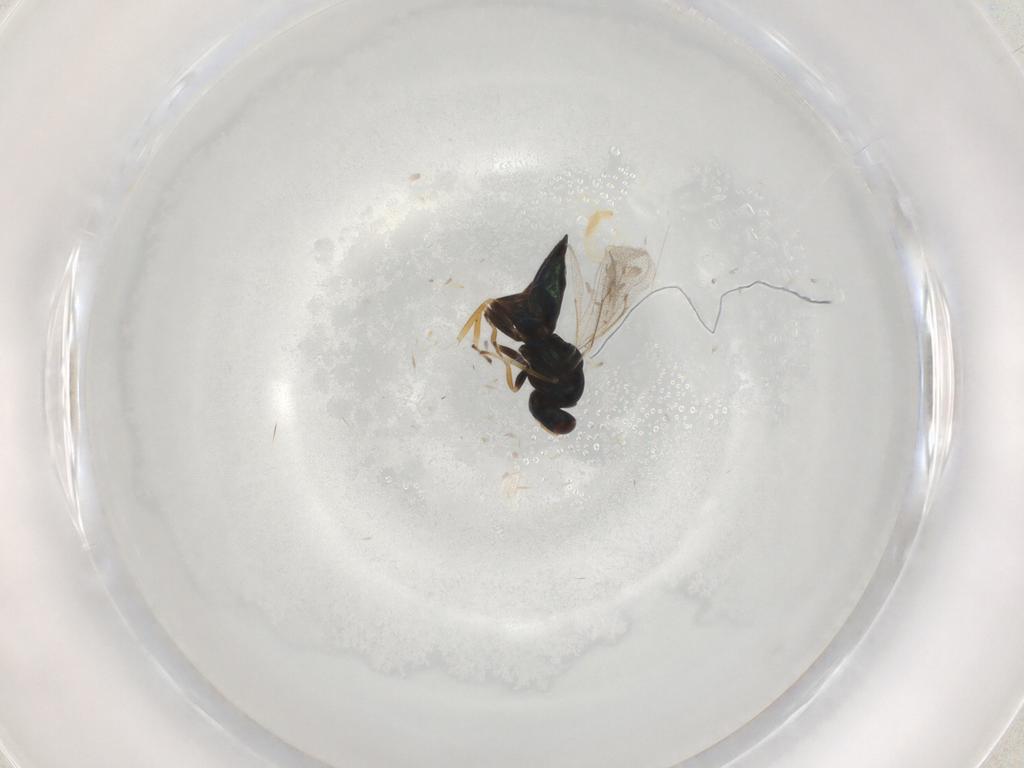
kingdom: Animalia
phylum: Arthropoda
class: Insecta
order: Hymenoptera
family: Eulophidae
